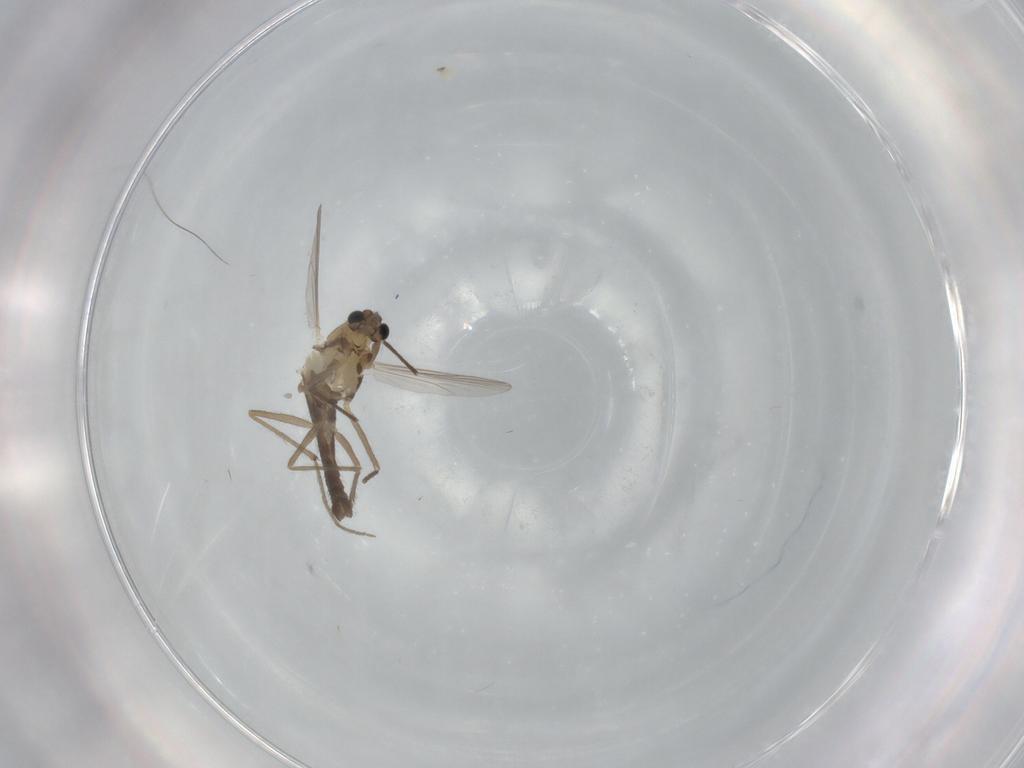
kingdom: Animalia
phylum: Arthropoda
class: Insecta
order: Diptera
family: Chironomidae
